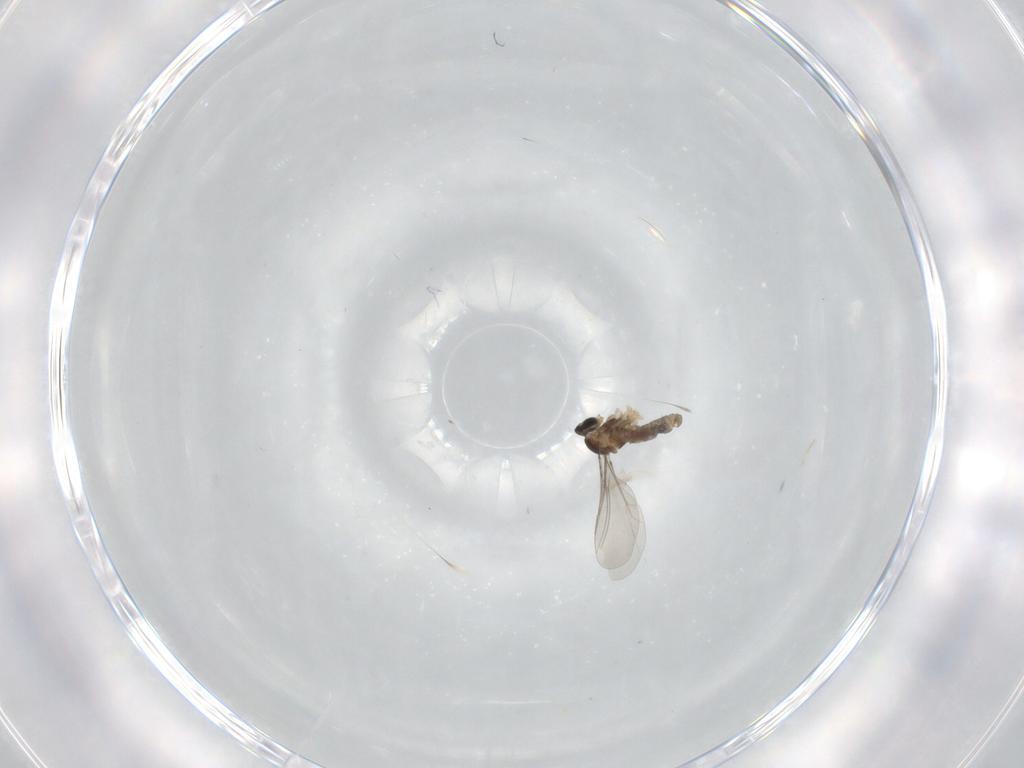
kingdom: Animalia
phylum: Arthropoda
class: Insecta
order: Diptera
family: Cecidomyiidae
